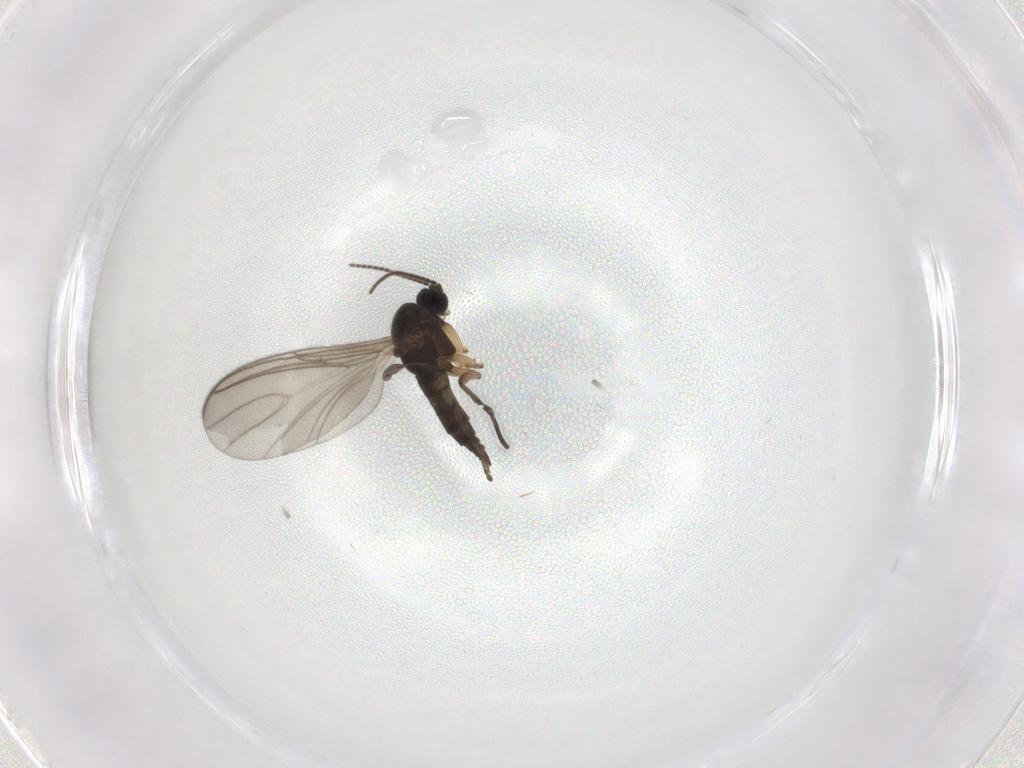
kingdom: Animalia
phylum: Arthropoda
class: Insecta
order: Diptera
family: Sciaridae
